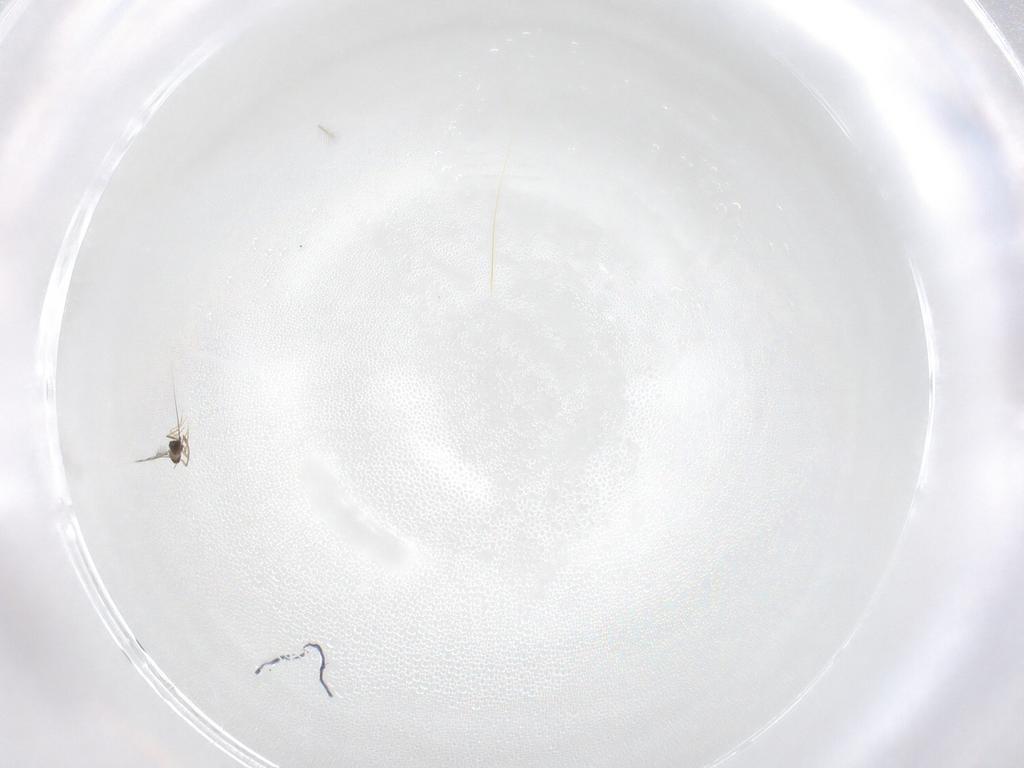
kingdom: Animalia
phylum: Arthropoda
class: Insecta
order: Diptera
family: Cecidomyiidae
